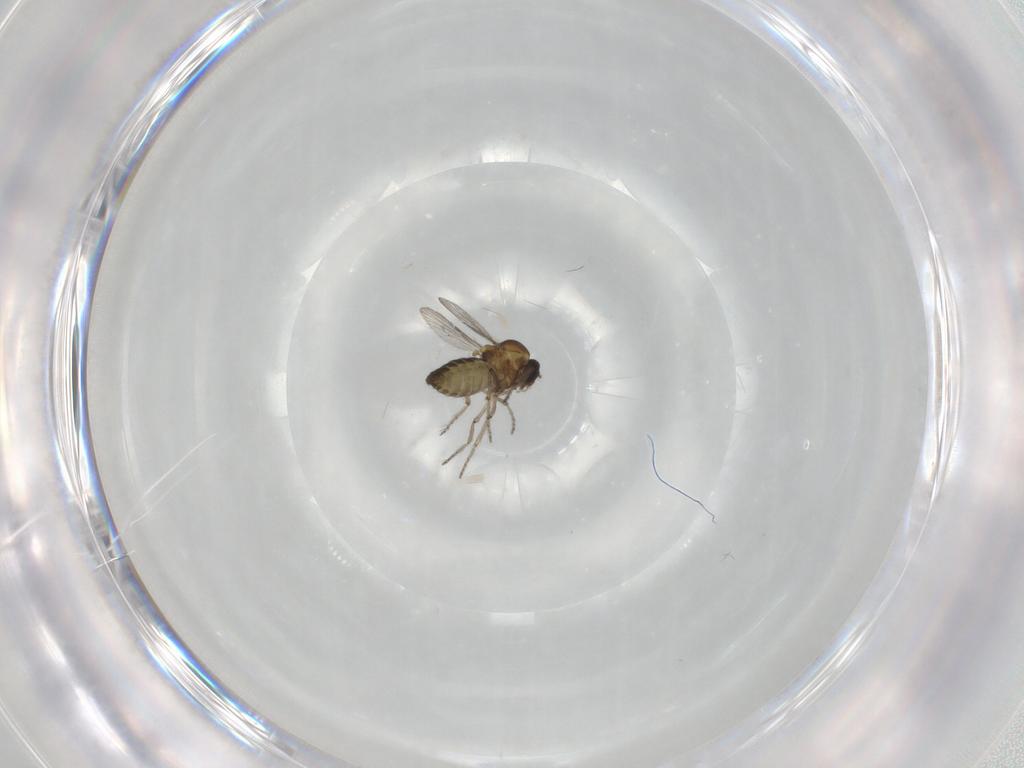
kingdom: Animalia
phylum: Arthropoda
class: Insecta
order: Diptera
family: Ceratopogonidae
